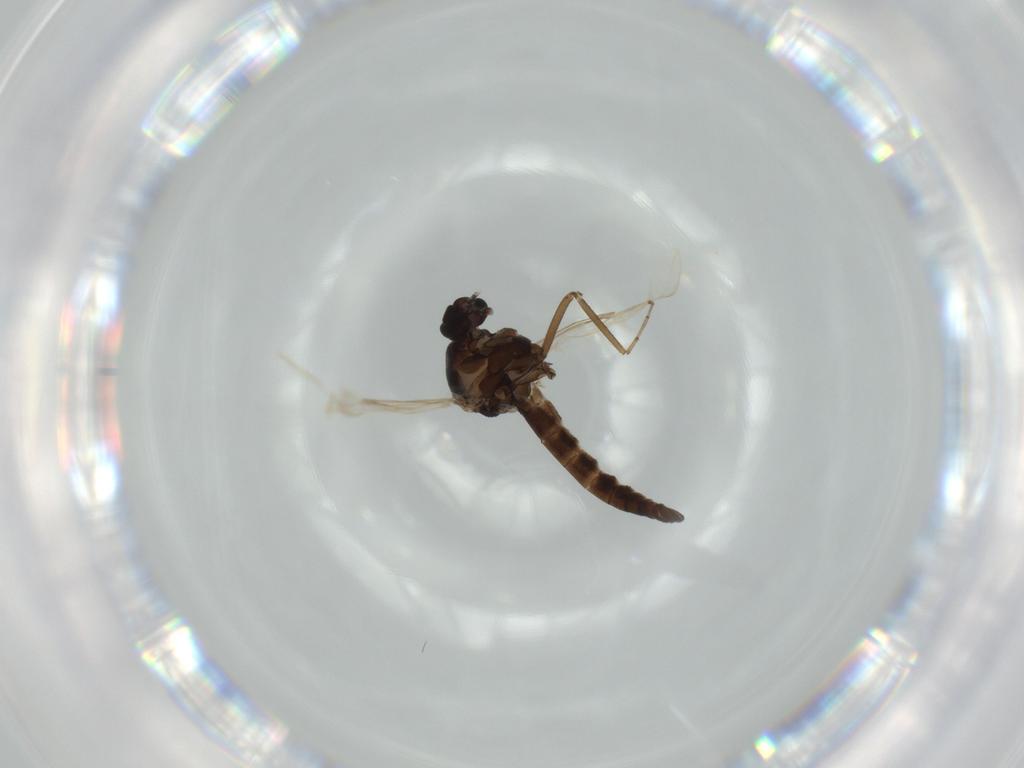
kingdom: Animalia
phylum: Arthropoda
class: Insecta
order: Diptera
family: Ceratopogonidae
